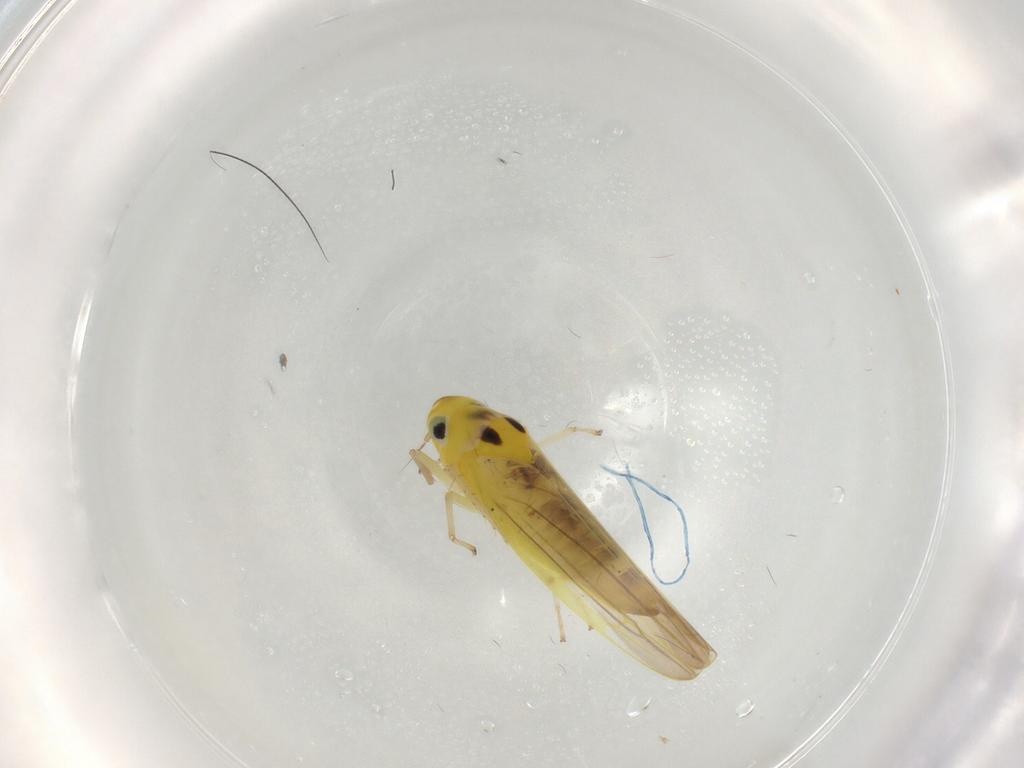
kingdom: Animalia
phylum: Arthropoda
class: Insecta
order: Hemiptera
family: Cicadellidae
